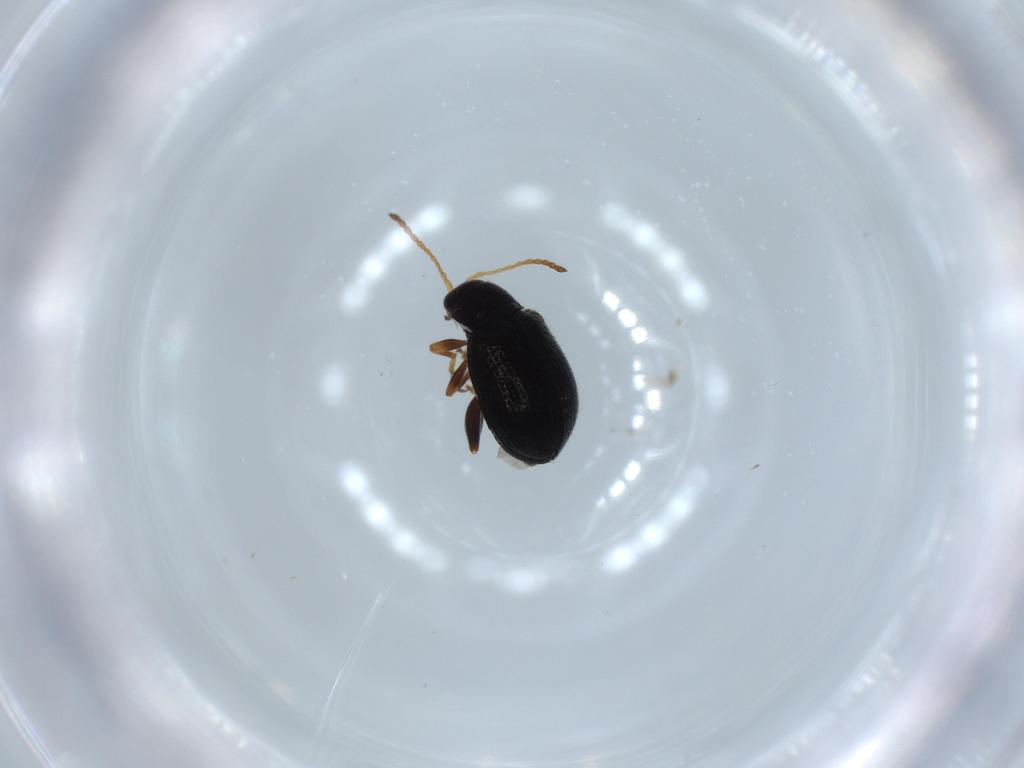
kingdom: Animalia
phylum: Arthropoda
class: Insecta
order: Coleoptera
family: Chrysomelidae
